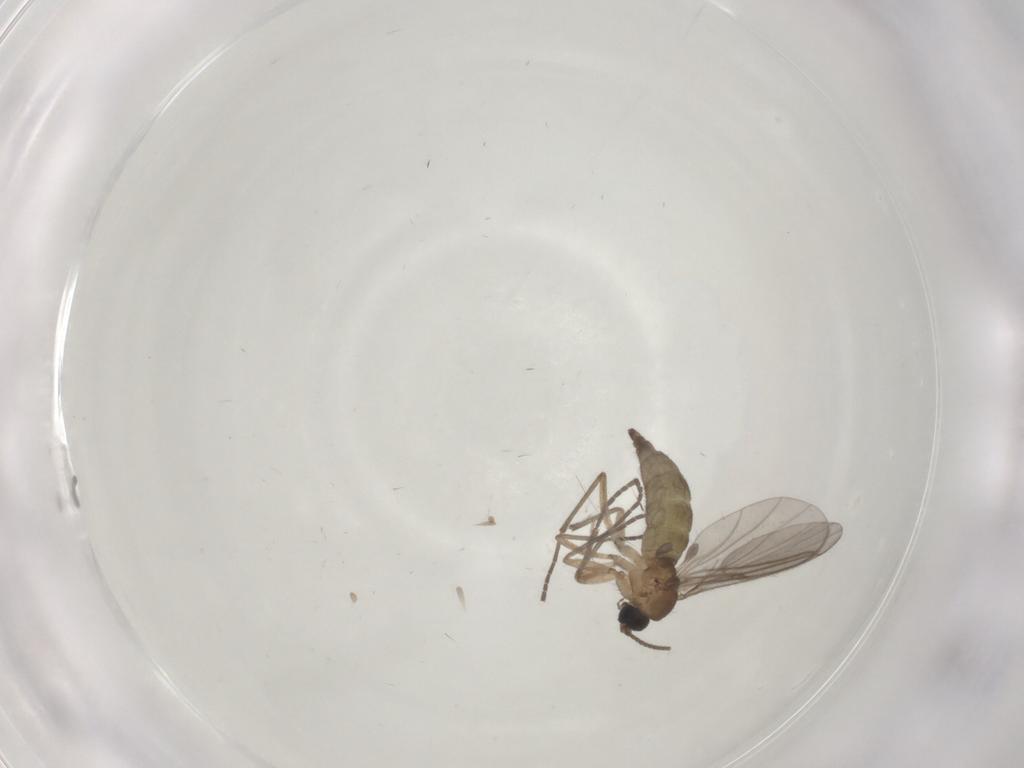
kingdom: Animalia
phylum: Arthropoda
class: Insecta
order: Diptera
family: Sciaridae
